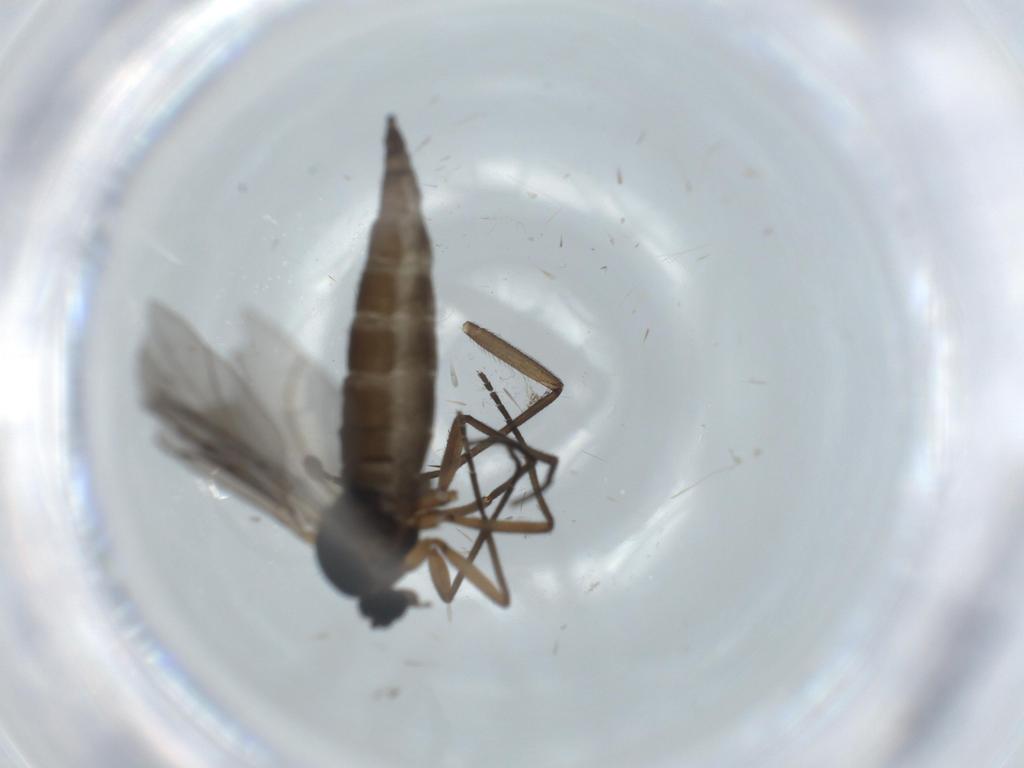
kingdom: Animalia
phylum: Arthropoda
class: Insecta
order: Diptera
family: Sciaridae
